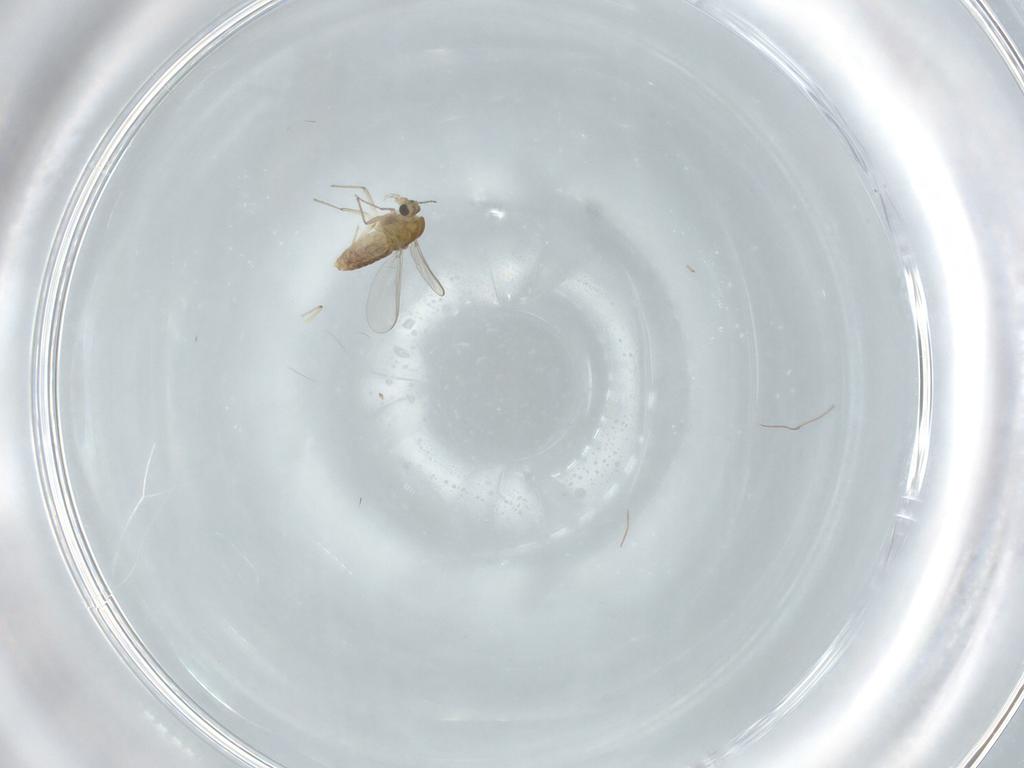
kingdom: Animalia
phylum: Arthropoda
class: Insecta
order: Diptera
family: Chironomidae
